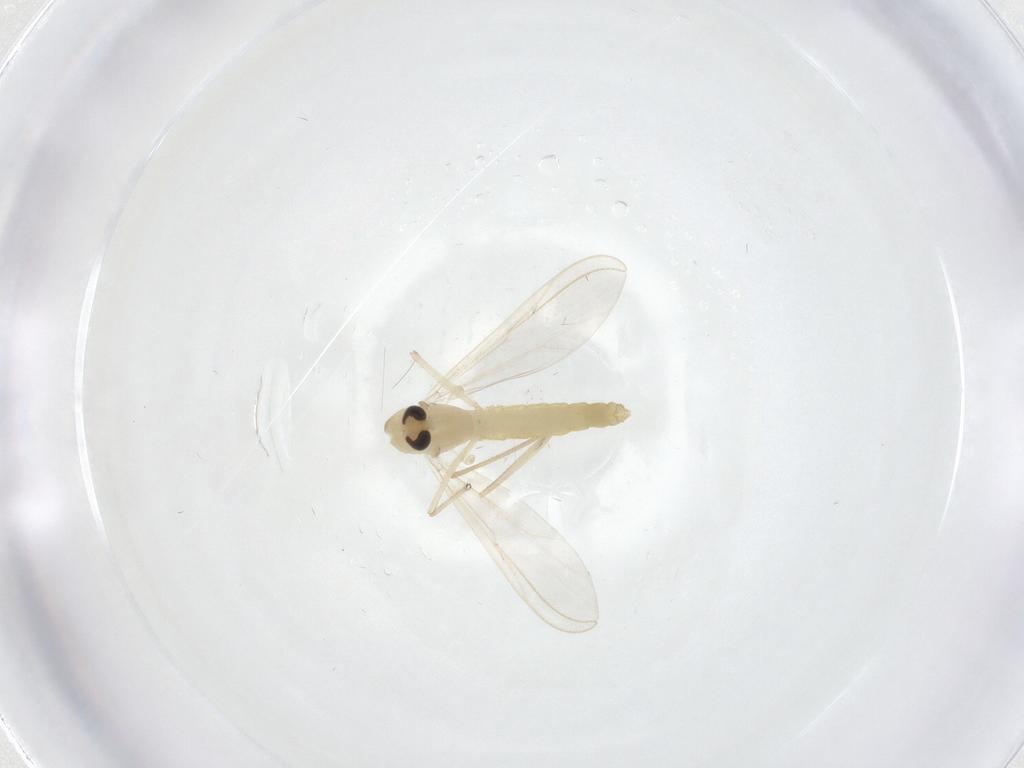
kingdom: Animalia
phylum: Arthropoda
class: Insecta
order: Diptera
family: Chironomidae
